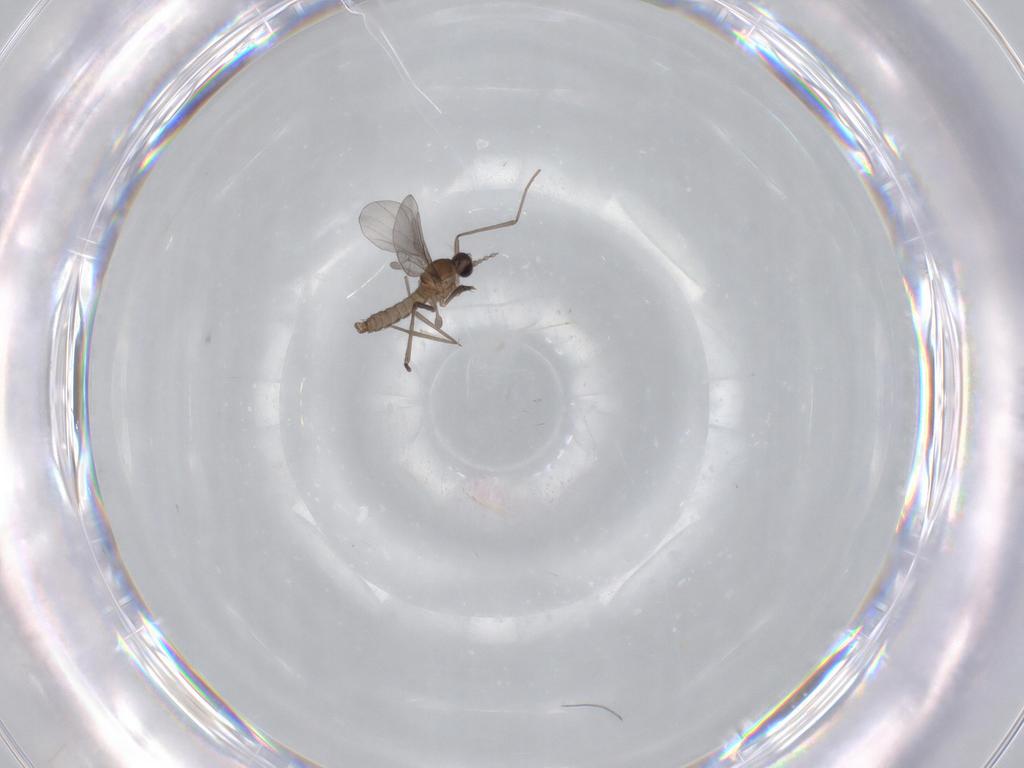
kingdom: Animalia
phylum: Arthropoda
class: Insecta
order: Diptera
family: Cecidomyiidae
